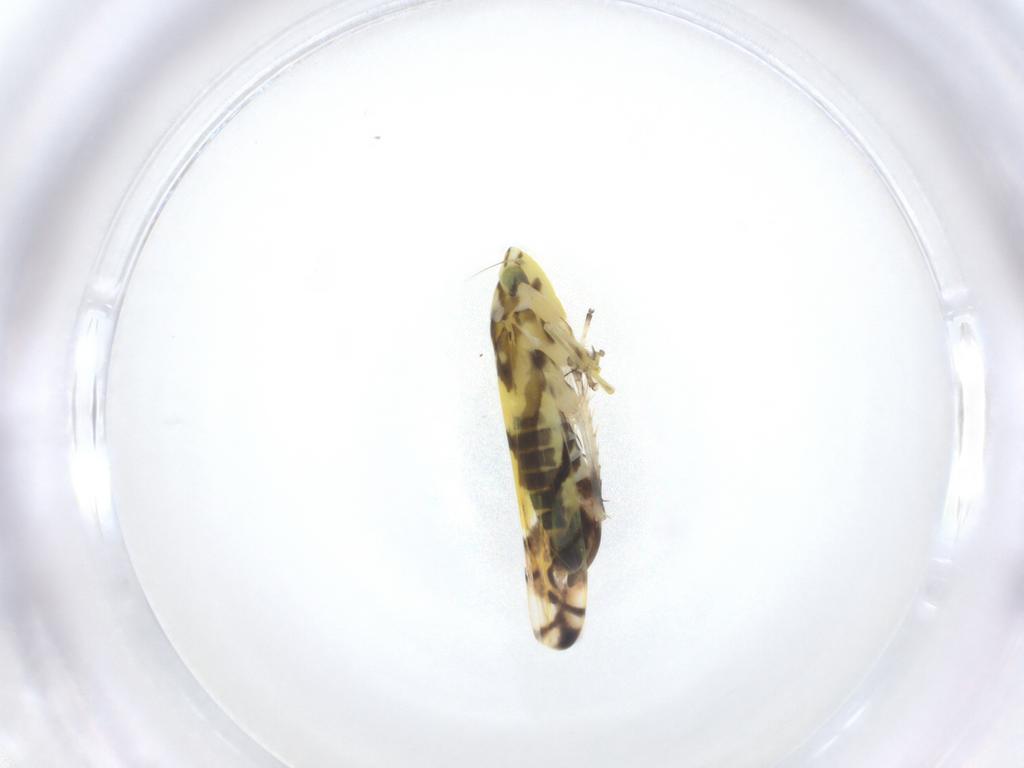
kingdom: Animalia
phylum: Arthropoda
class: Insecta
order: Hemiptera
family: Cicadellidae
